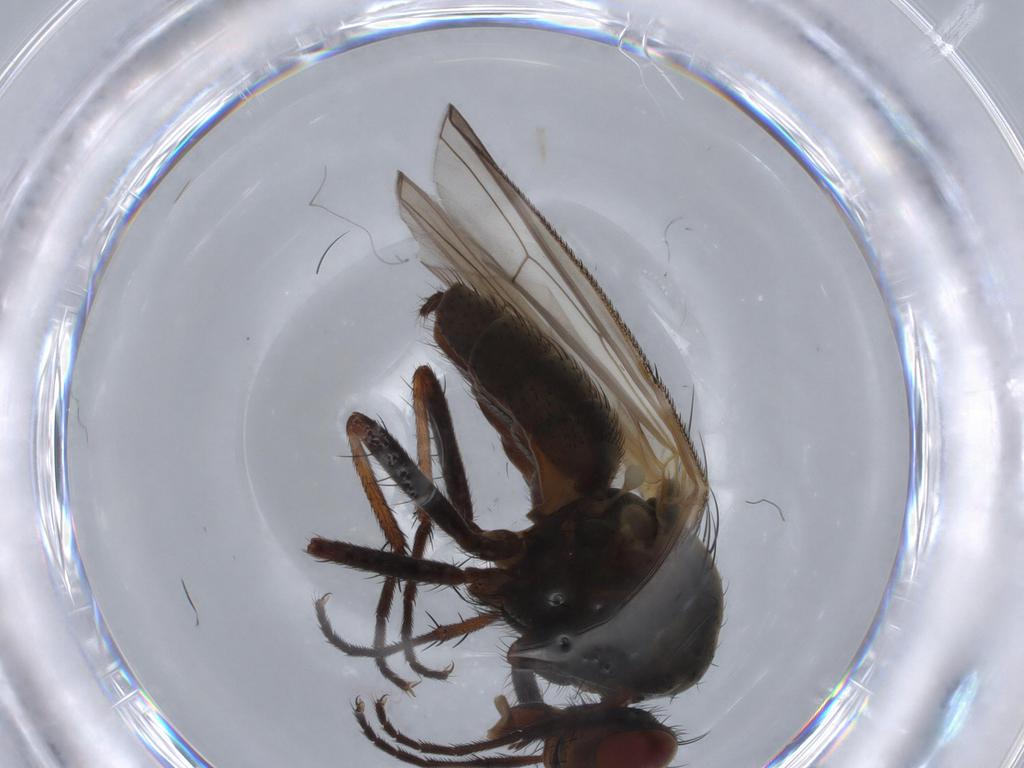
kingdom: Animalia
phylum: Arthropoda
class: Insecta
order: Diptera
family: Anthomyiidae
